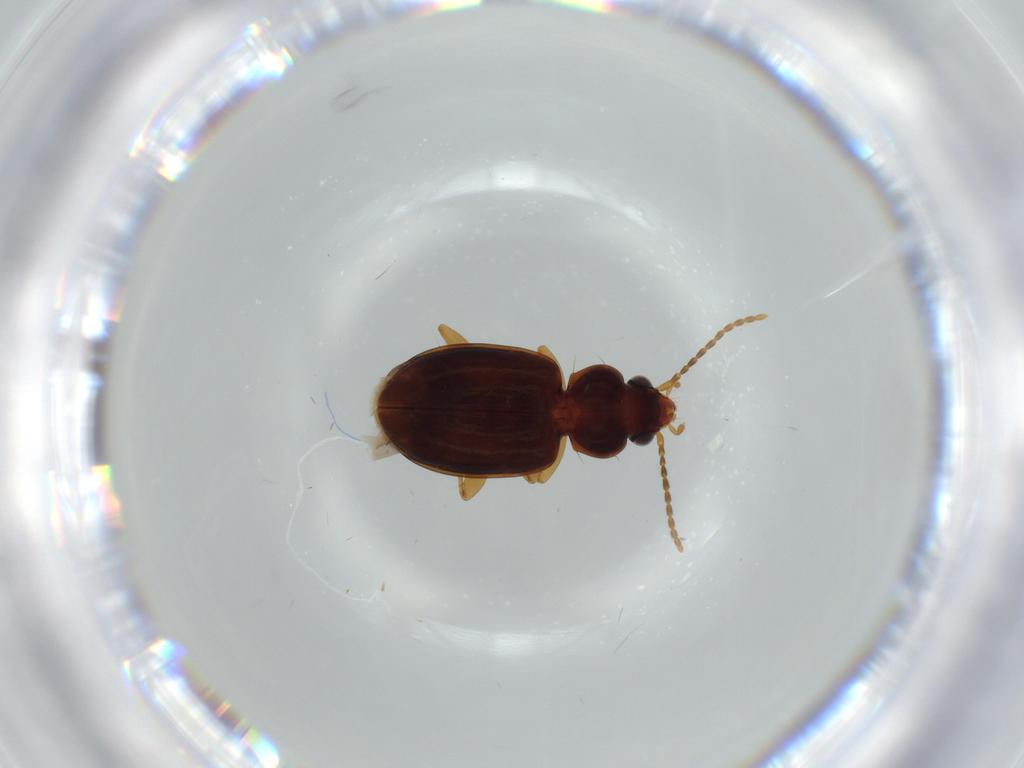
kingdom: Animalia
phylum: Arthropoda
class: Insecta
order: Coleoptera
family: Carabidae
